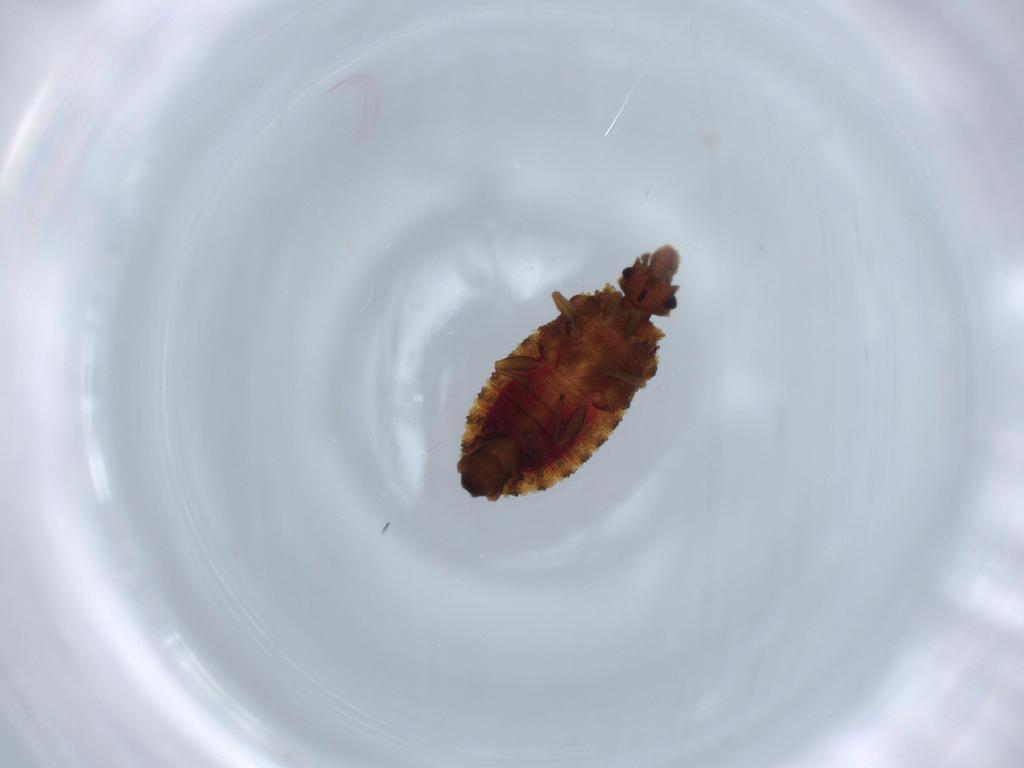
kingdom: Animalia
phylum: Arthropoda
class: Insecta
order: Hemiptera
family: Aradidae
